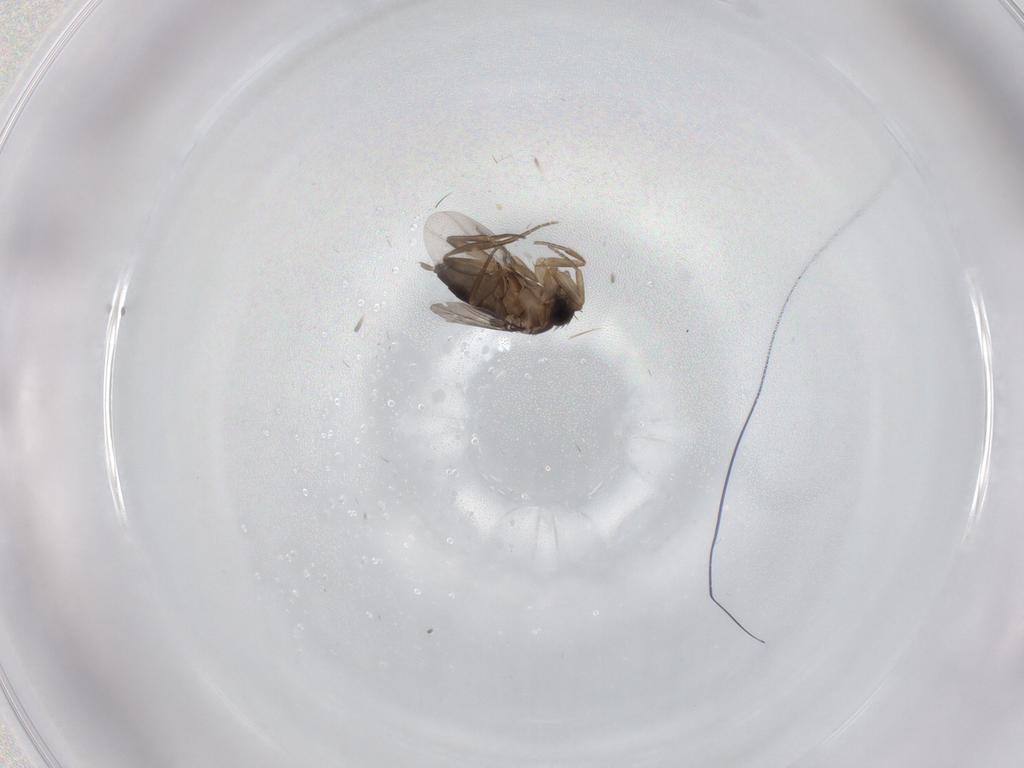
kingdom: Animalia
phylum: Arthropoda
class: Insecta
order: Diptera
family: Phoridae
